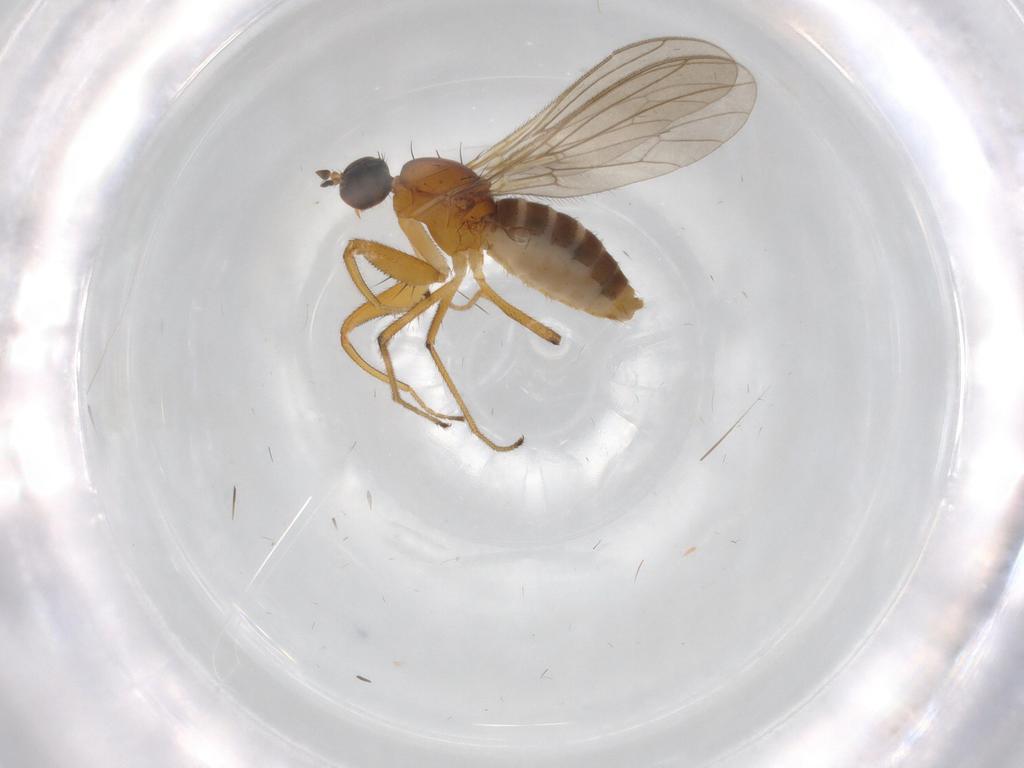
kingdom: Animalia
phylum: Arthropoda
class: Insecta
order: Diptera
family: Empididae
